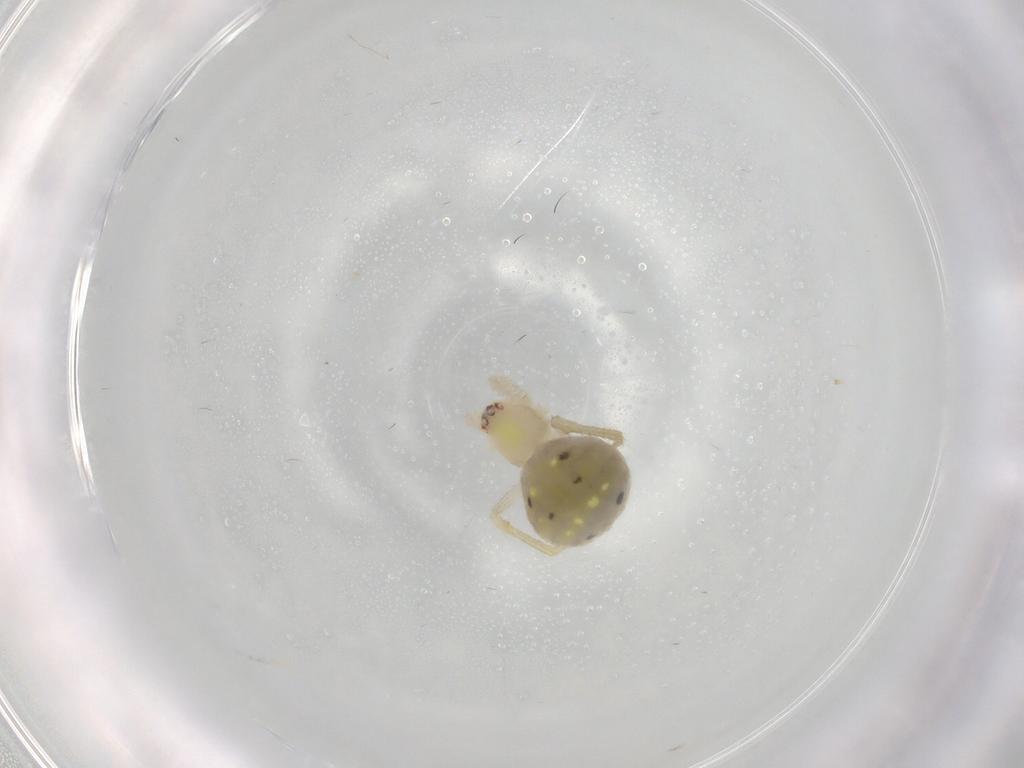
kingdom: Animalia
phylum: Arthropoda
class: Arachnida
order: Araneae
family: Theridiidae
